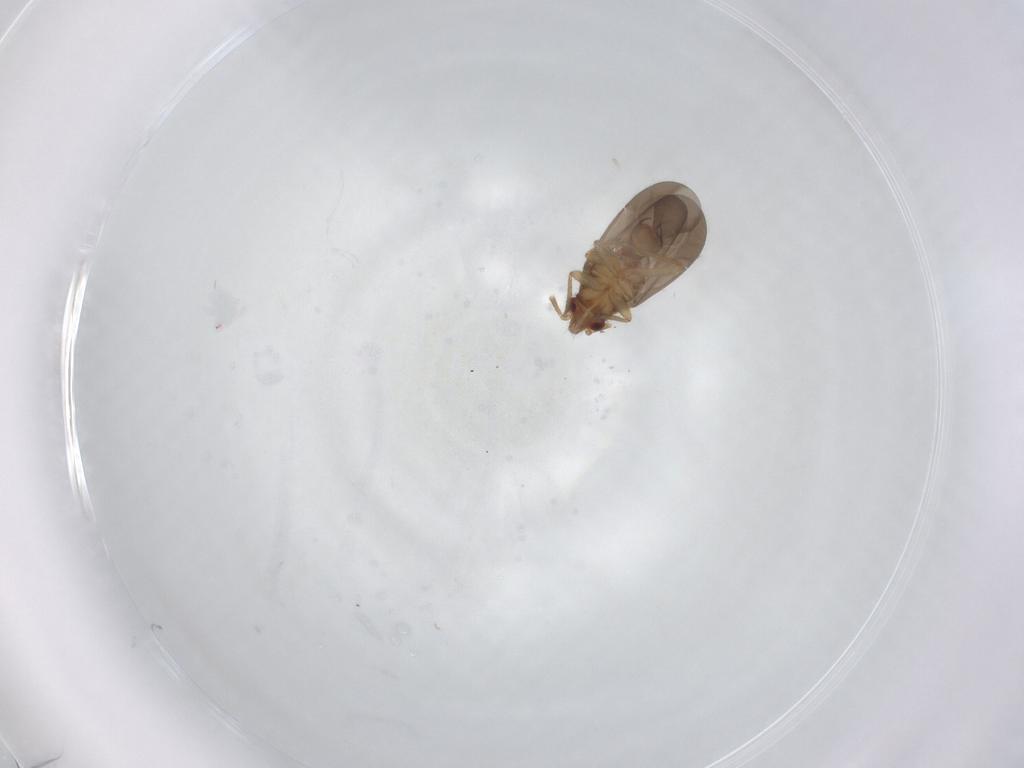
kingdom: Animalia
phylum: Arthropoda
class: Insecta
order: Hemiptera
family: Ceratocombidae
